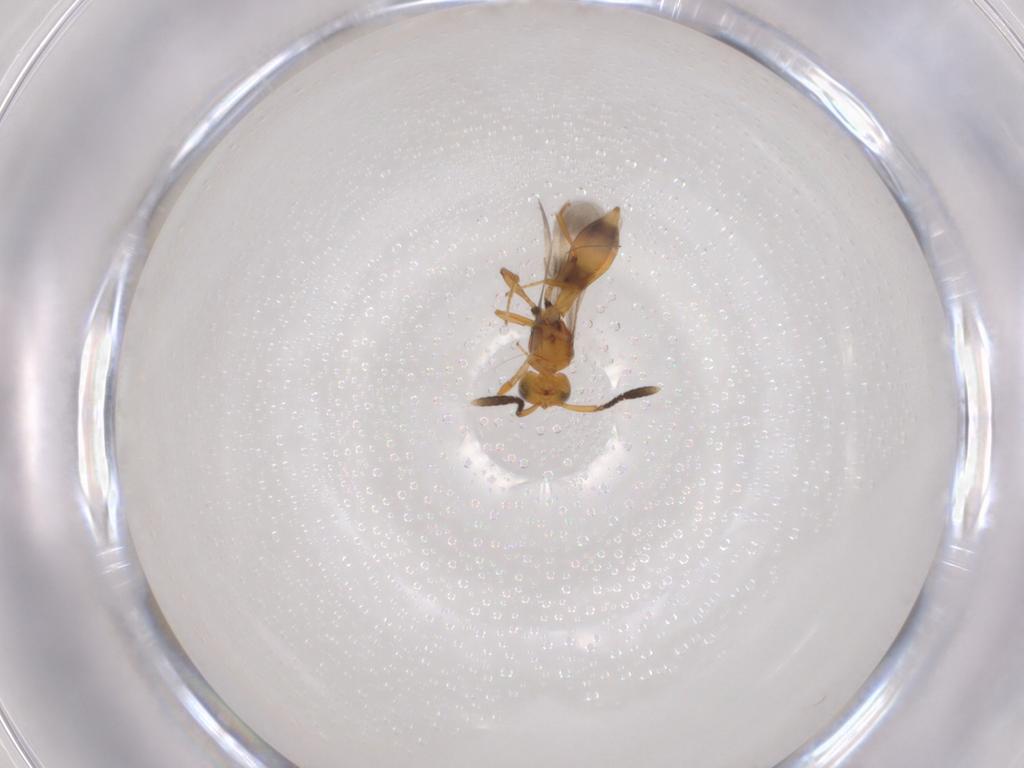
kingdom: Animalia
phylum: Arthropoda
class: Insecta
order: Hymenoptera
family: Scelionidae
